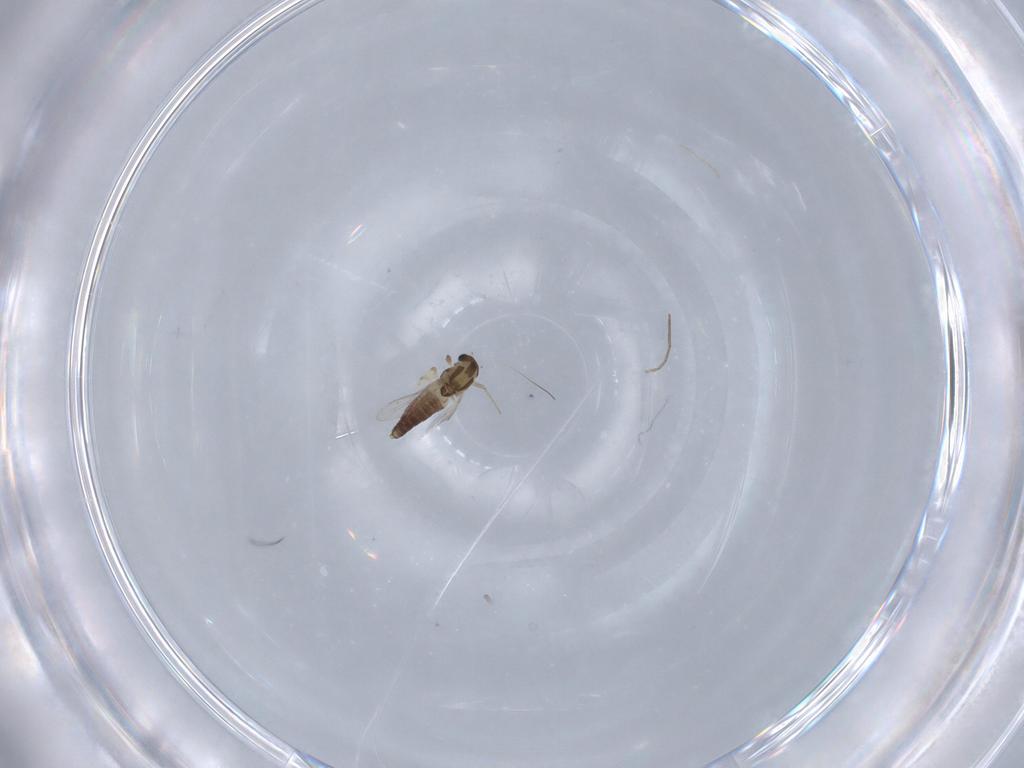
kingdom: Animalia
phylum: Arthropoda
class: Insecta
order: Diptera
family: Chironomidae
